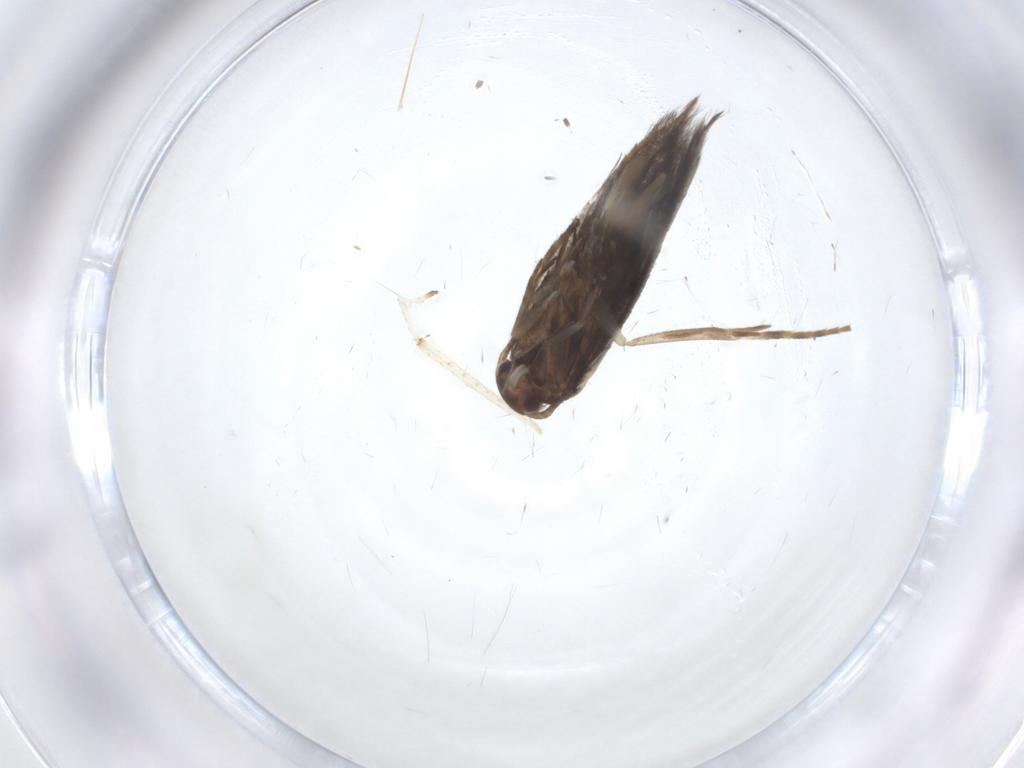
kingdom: Animalia
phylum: Arthropoda
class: Insecta
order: Lepidoptera
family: Elachistidae
